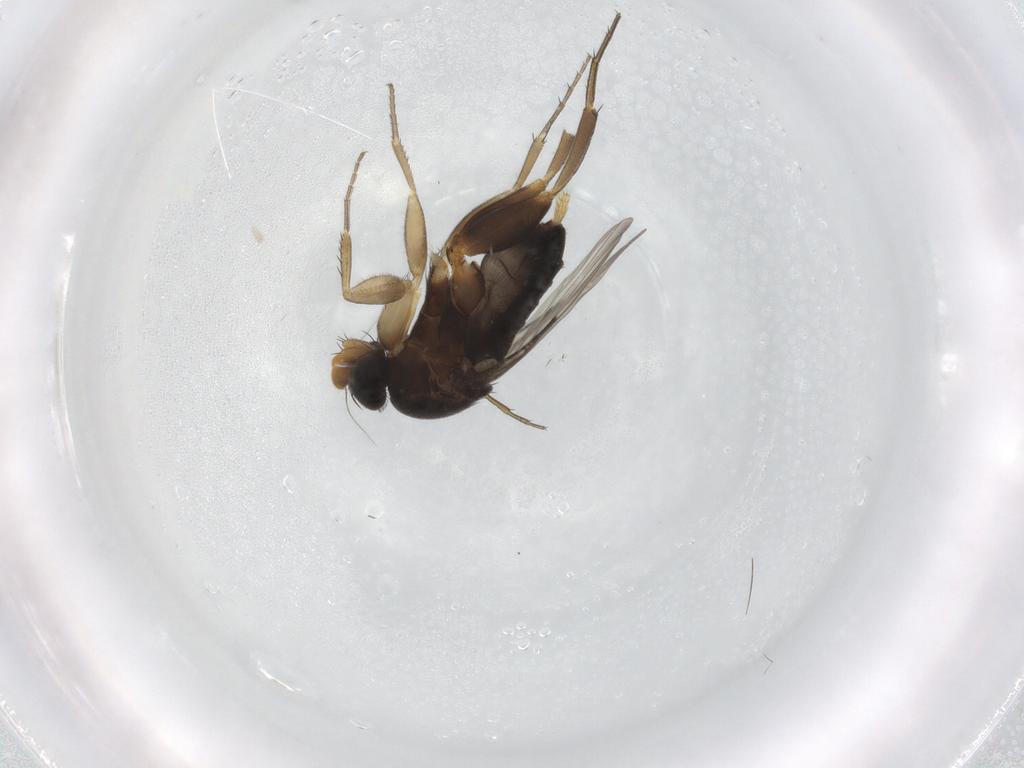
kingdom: Animalia
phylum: Arthropoda
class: Insecta
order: Diptera
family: Phoridae
